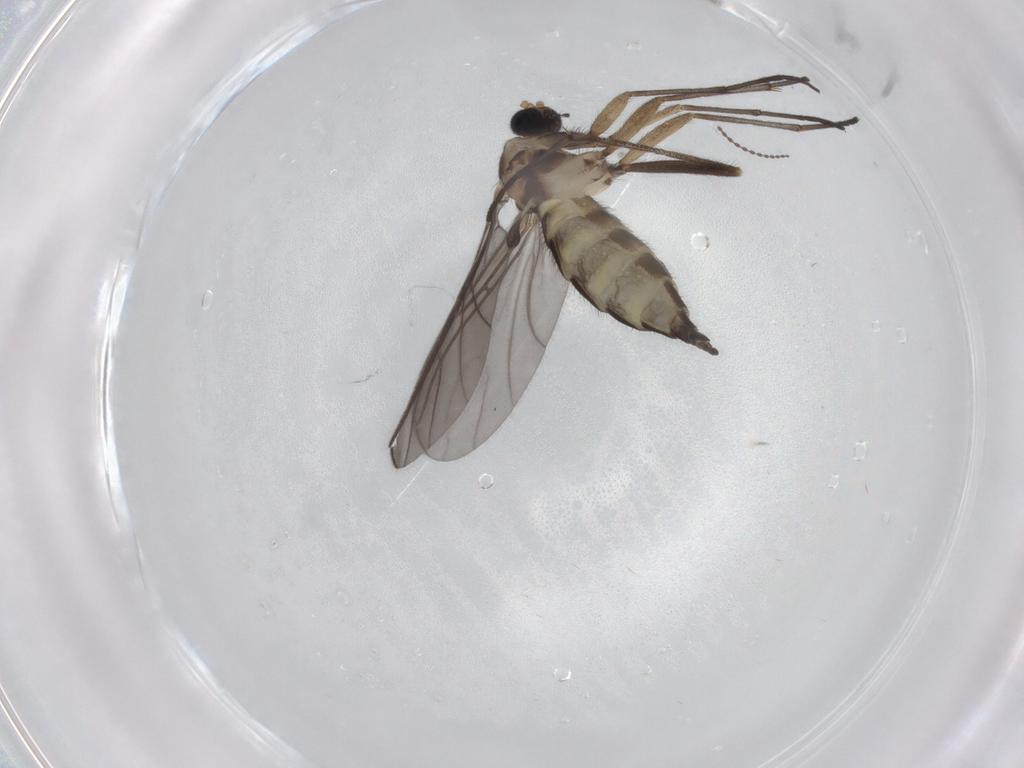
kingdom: Animalia
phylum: Arthropoda
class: Insecta
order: Diptera
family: Sciaridae
